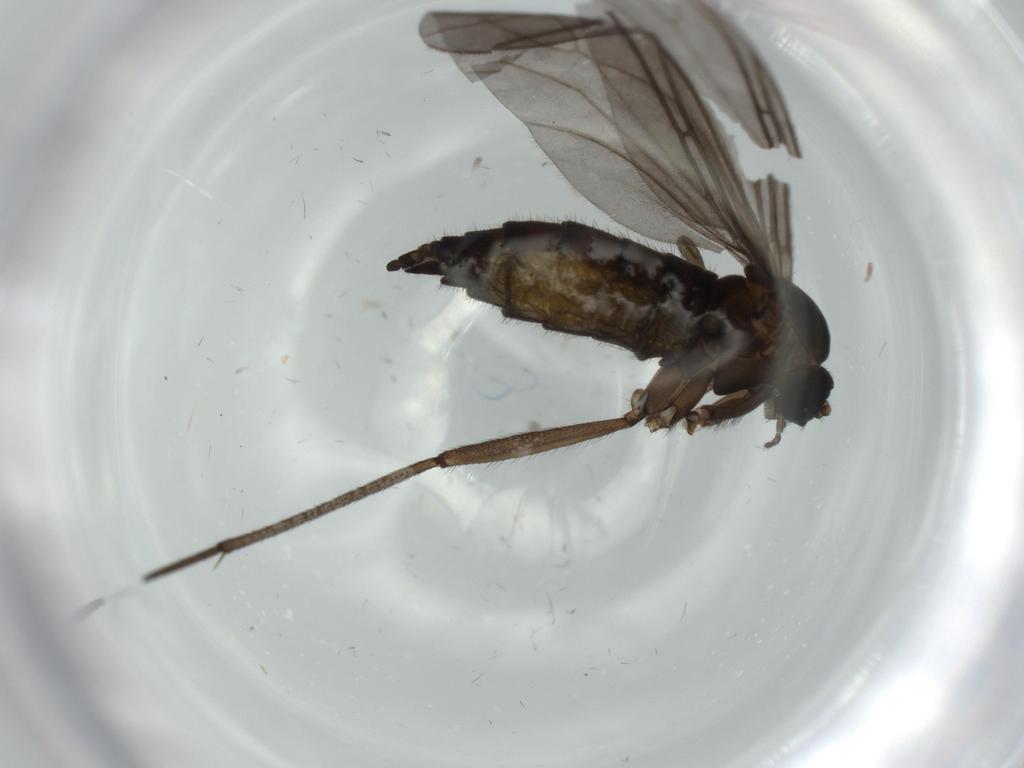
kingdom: Animalia
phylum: Arthropoda
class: Insecta
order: Diptera
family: Sciaridae
